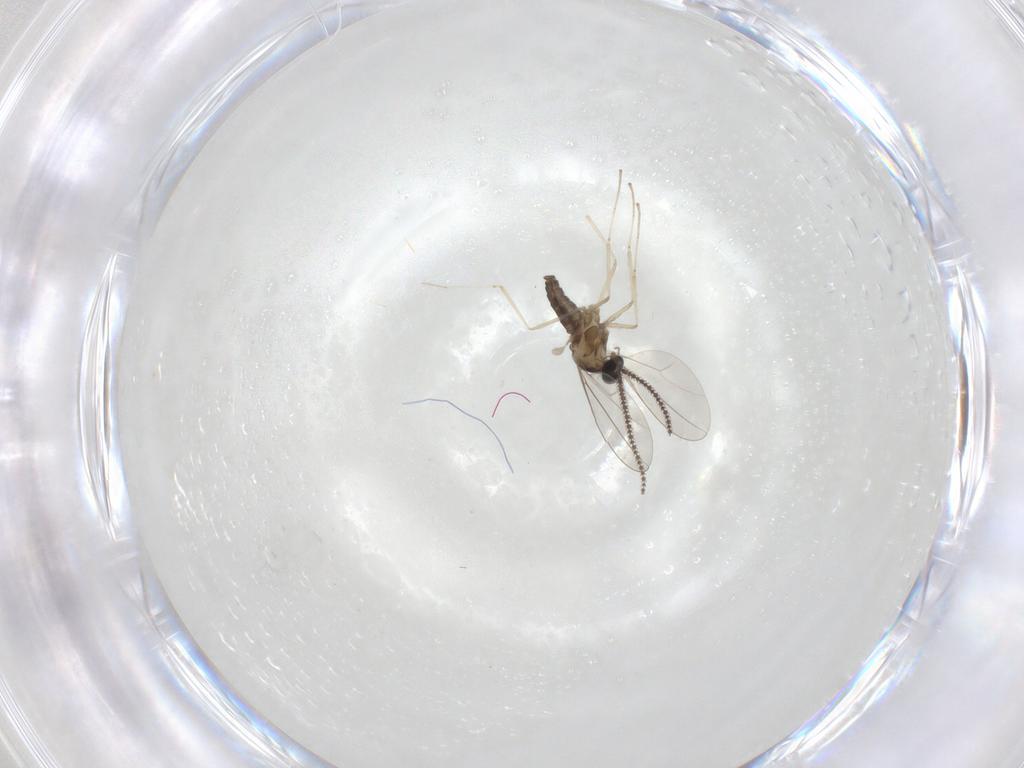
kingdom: Animalia
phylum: Arthropoda
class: Insecta
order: Diptera
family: Cecidomyiidae
